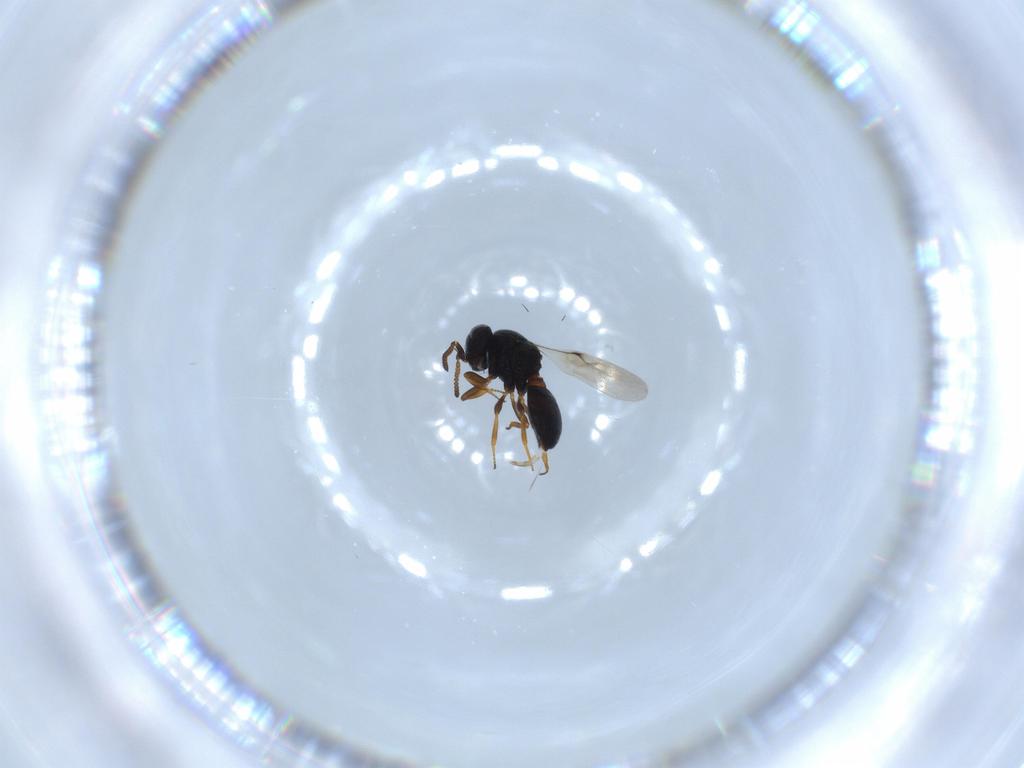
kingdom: Animalia
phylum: Arthropoda
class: Insecta
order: Hymenoptera
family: Scelionidae
